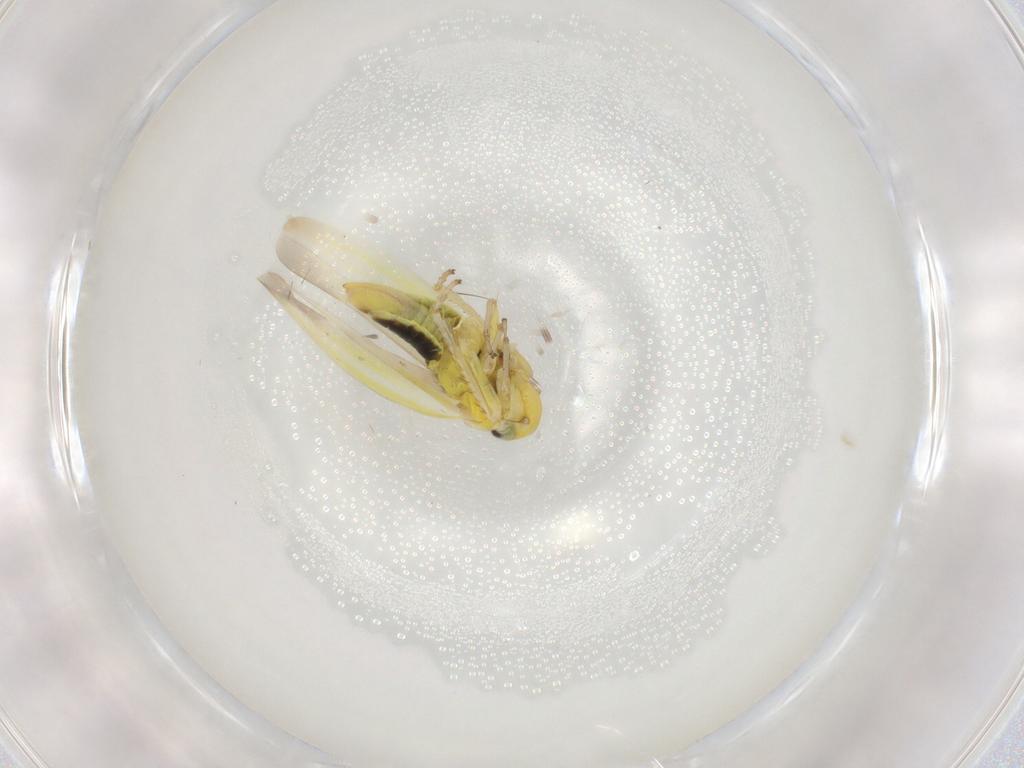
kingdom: Animalia
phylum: Arthropoda
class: Insecta
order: Hemiptera
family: Cicadellidae
